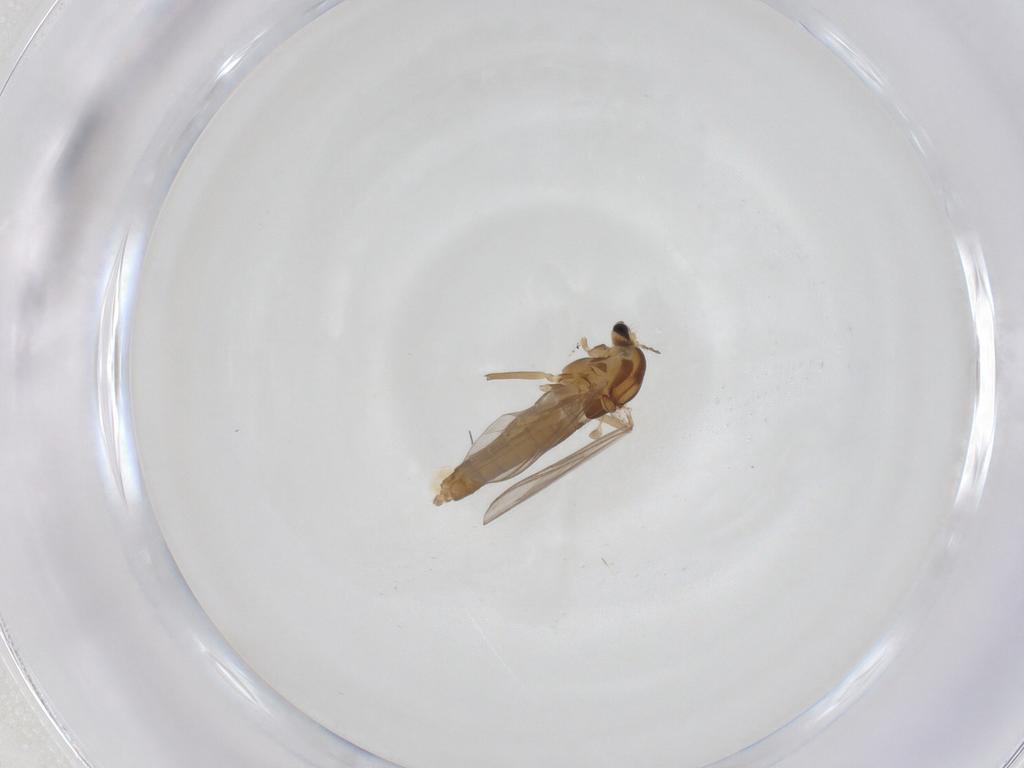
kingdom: Animalia
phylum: Arthropoda
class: Insecta
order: Diptera
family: Chironomidae
